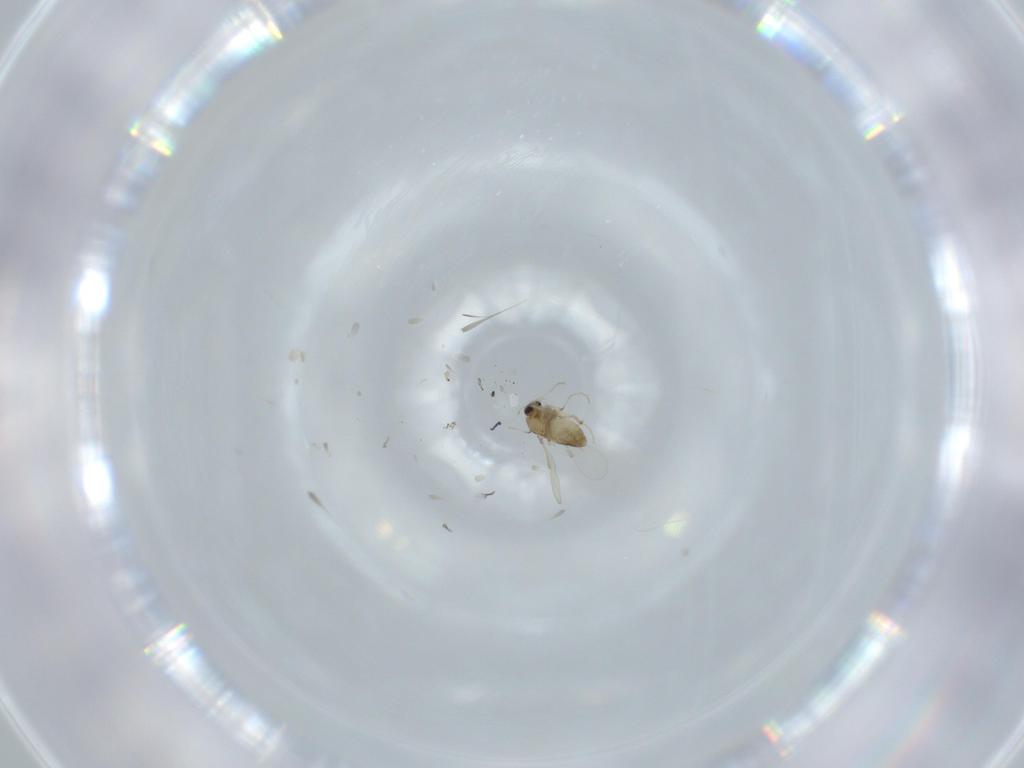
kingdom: Animalia
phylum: Arthropoda
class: Insecta
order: Diptera
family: Chironomidae
